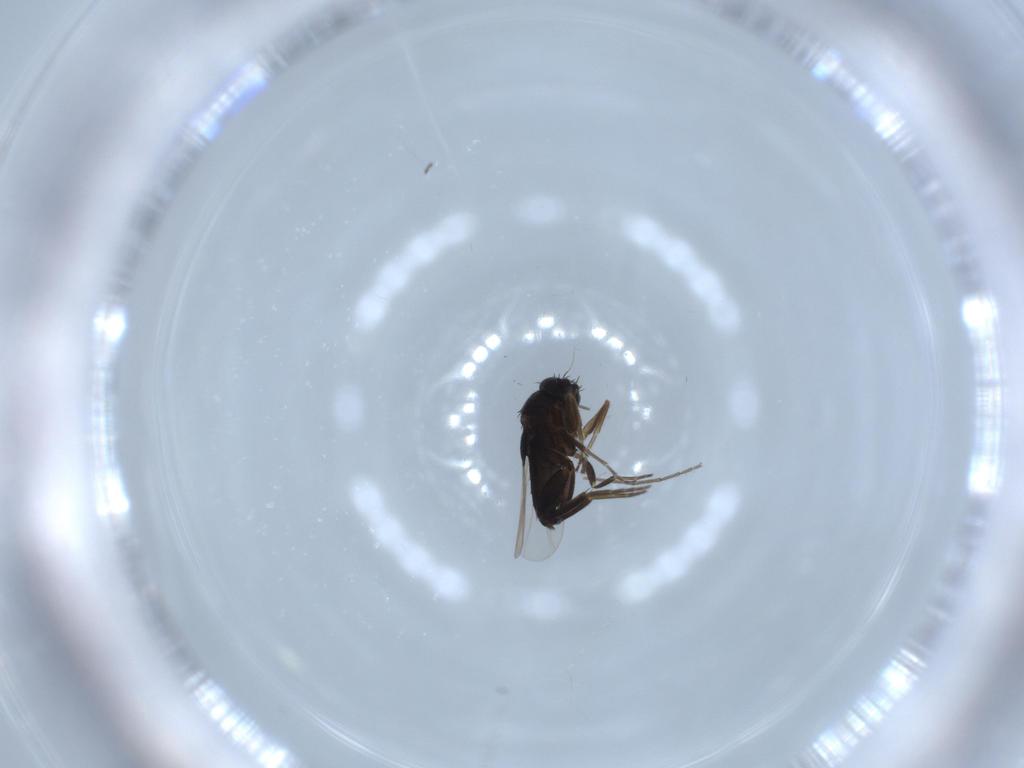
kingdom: Animalia
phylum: Arthropoda
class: Insecta
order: Diptera
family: Phoridae
